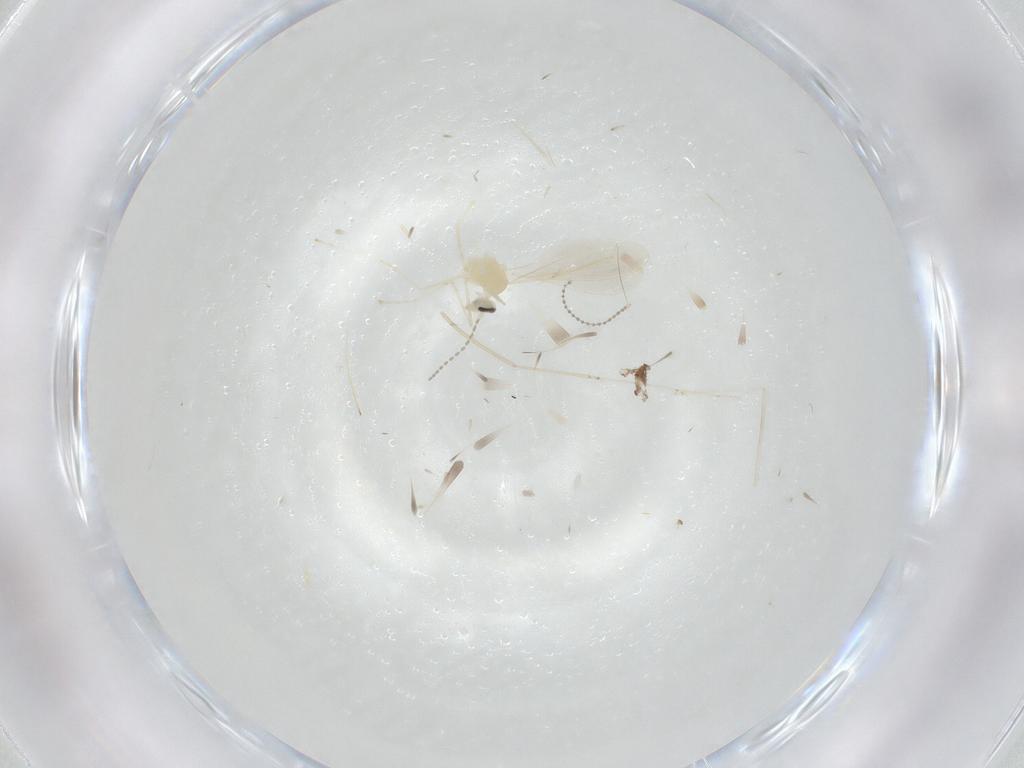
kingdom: Animalia
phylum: Arthropoda
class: Insecta
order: Diptera
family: Cecidomyiidae
